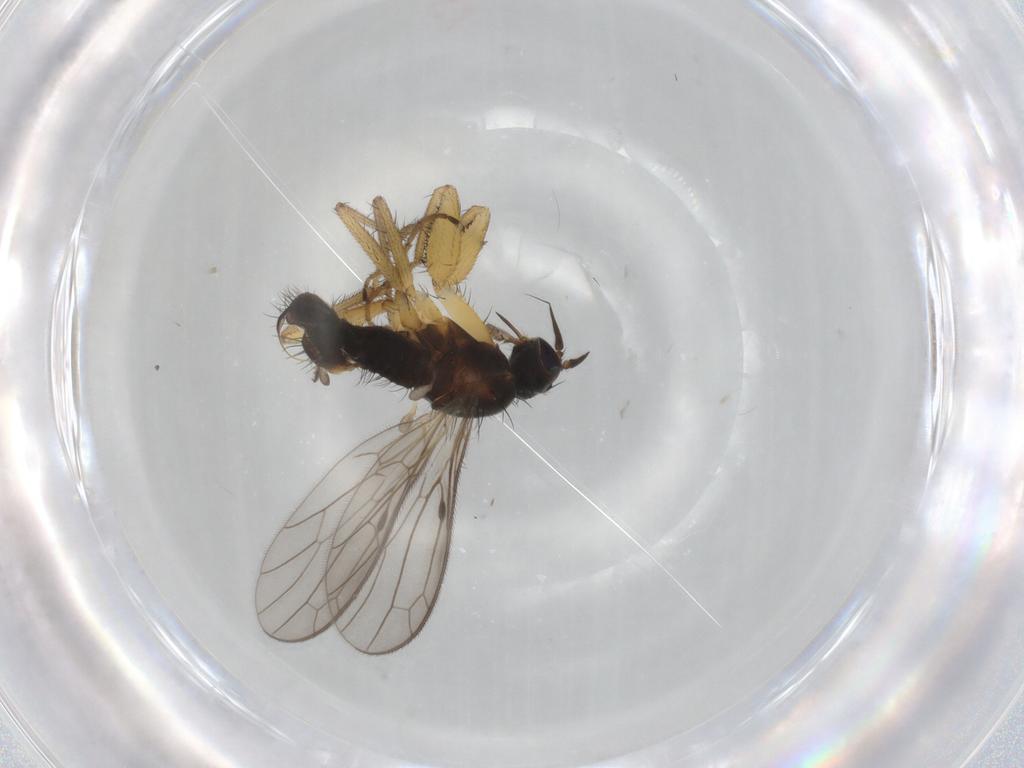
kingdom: Animalia
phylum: Arthropoda
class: Insecta
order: Diptera
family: Empididae
